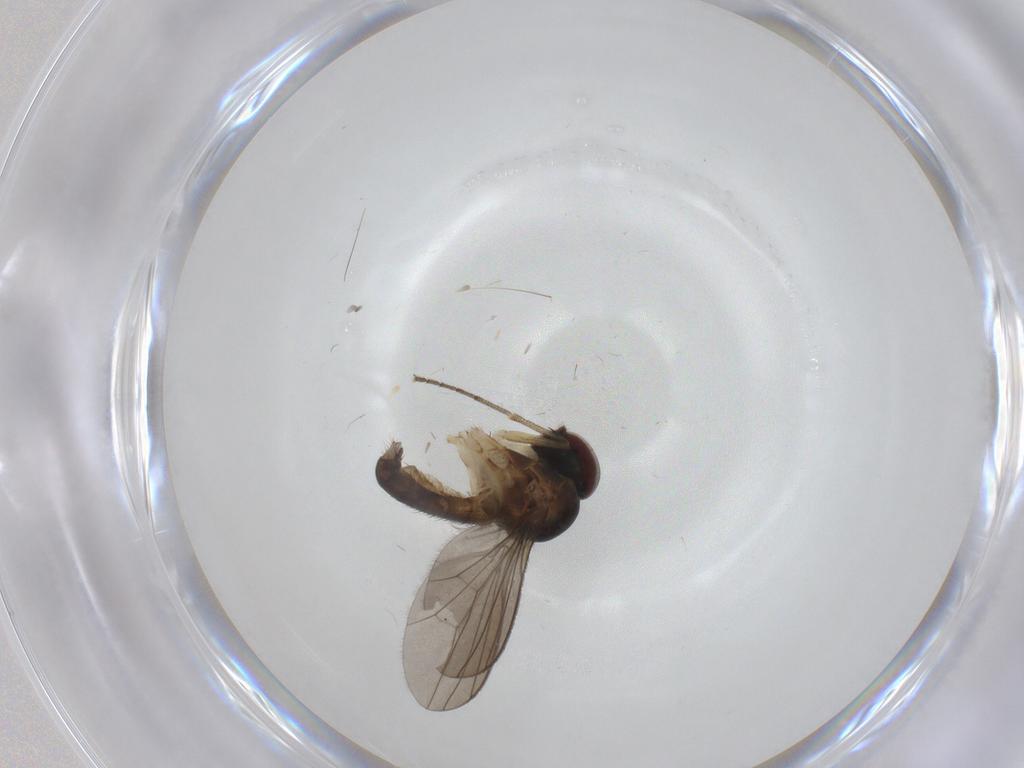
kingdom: Animalia
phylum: Arthropoda
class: Insecta
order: Diptera
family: Dolichopodidae
